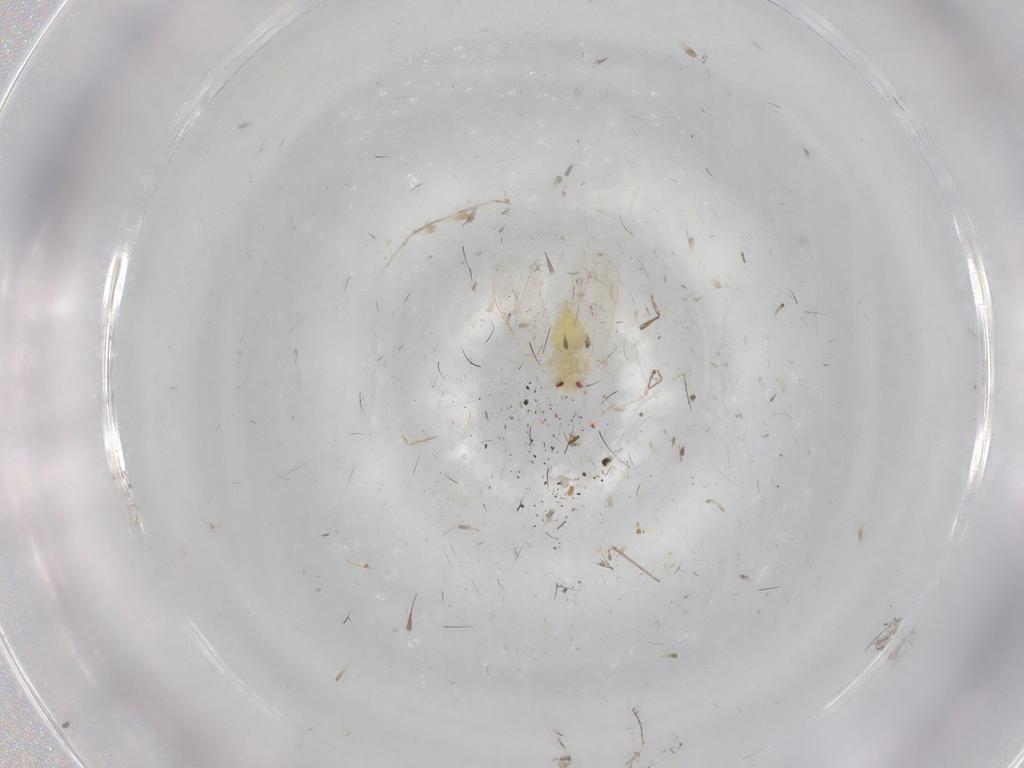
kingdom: Animalia
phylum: Arthropoda
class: Insecta
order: Hemiptera
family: Aleyrodidae
